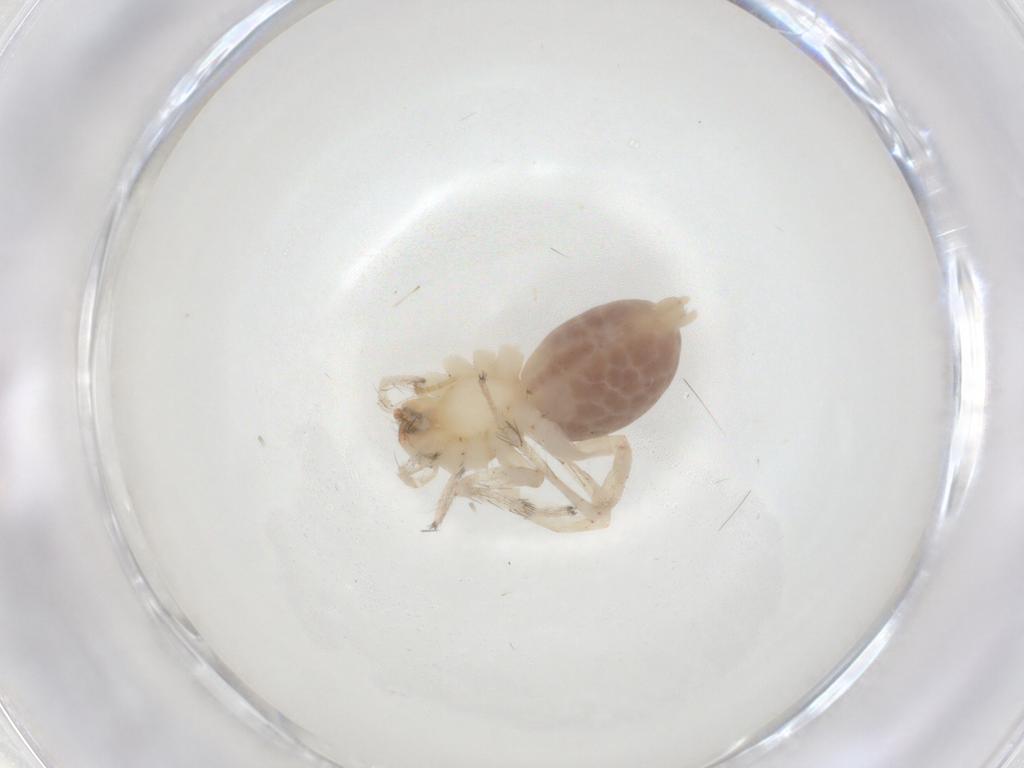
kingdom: Animalia
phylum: Arthropoda
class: Arachnida
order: Araneae
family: Anyphaenidae
